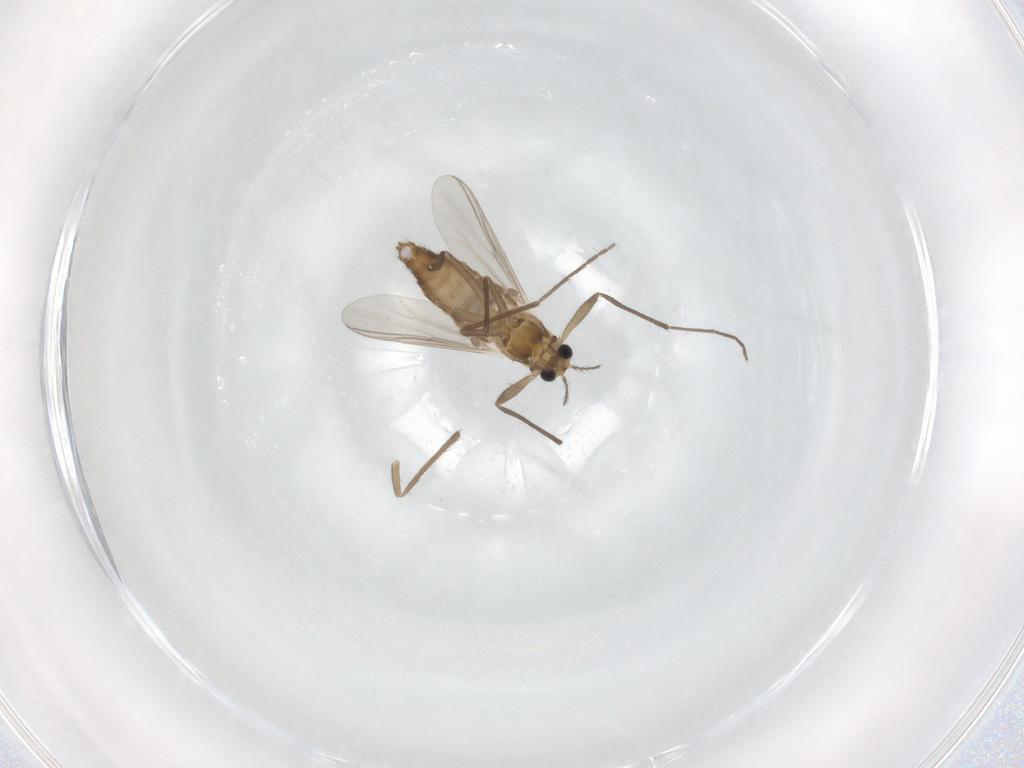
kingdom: Animalia
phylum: Arthropoda
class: Insecta
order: Diptera
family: Chironomidae
